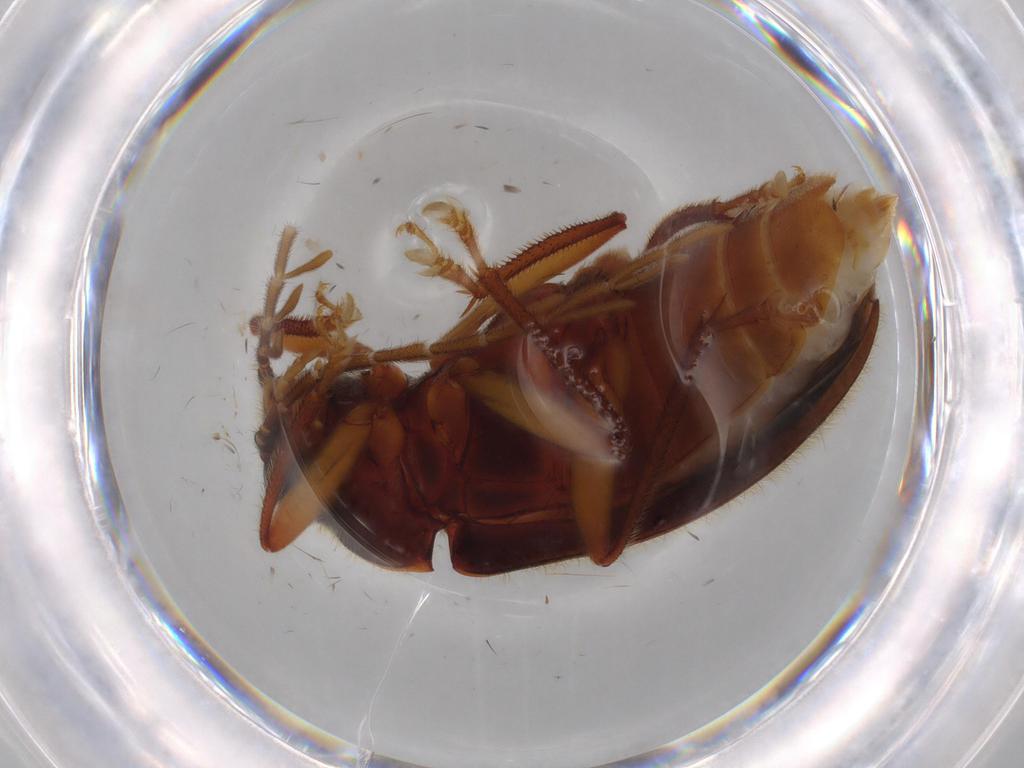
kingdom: Animalia
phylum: Arthropoda
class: Insecta
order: Coleoptera
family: Ptilodactylidae
